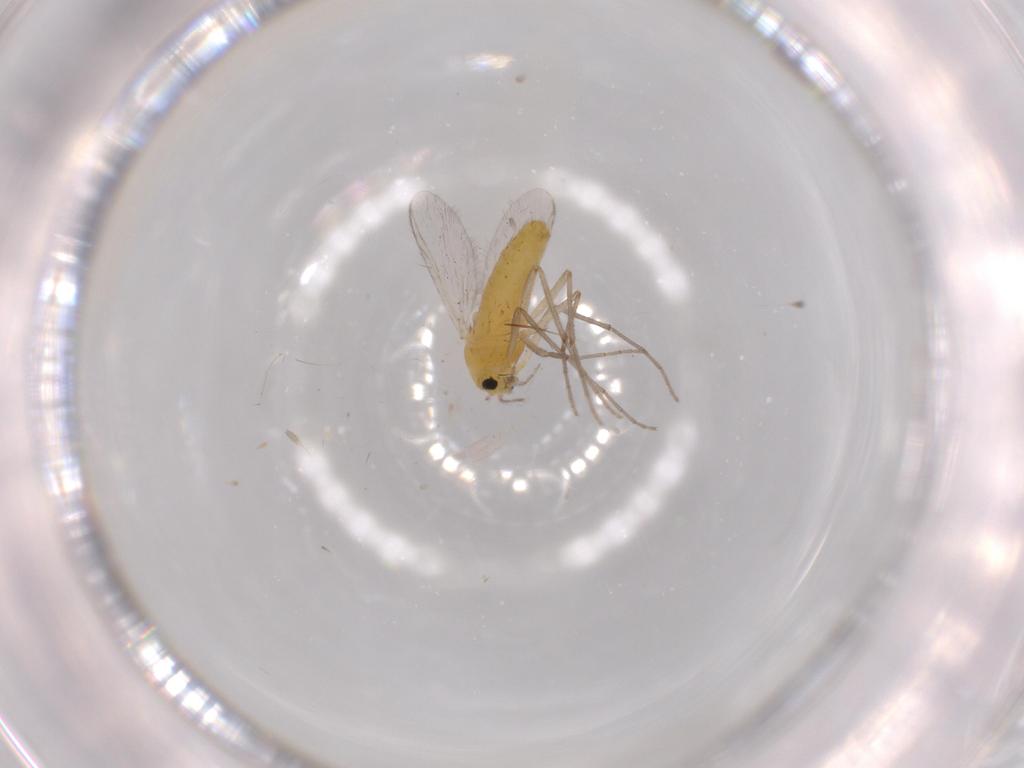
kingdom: Animalia
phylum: Arthropoda
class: Insecta
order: Diptera
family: Chironomidae
